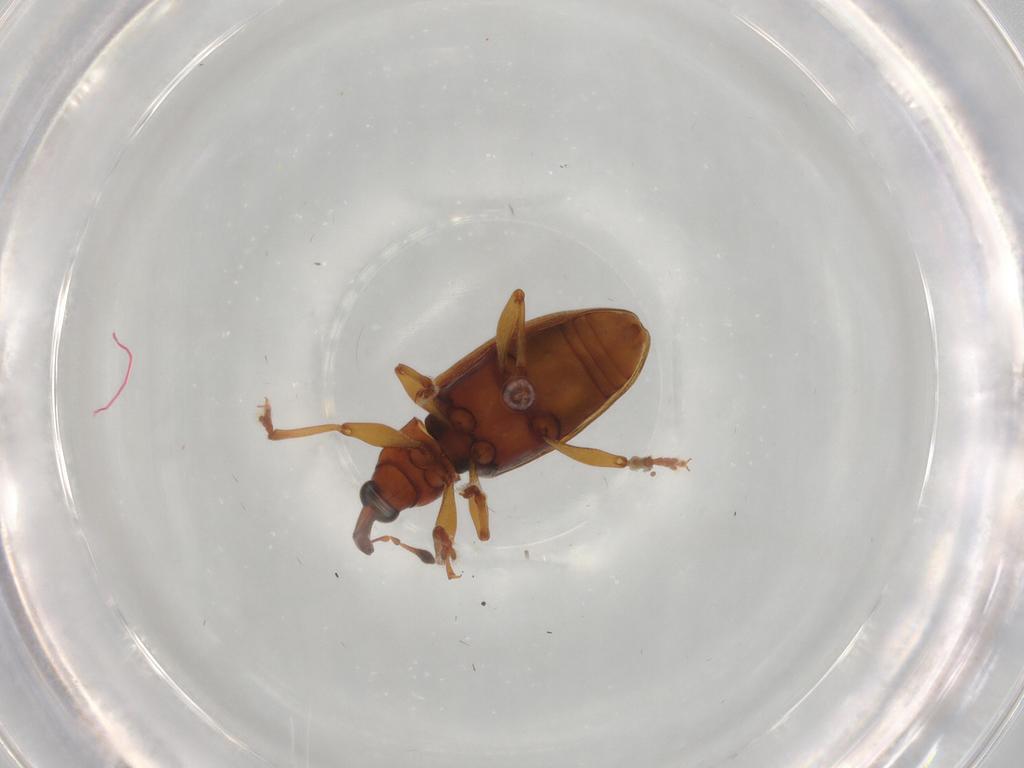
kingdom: Animalia
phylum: Arthropoda
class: Insecta
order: Coleoptera
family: Curculionidae
